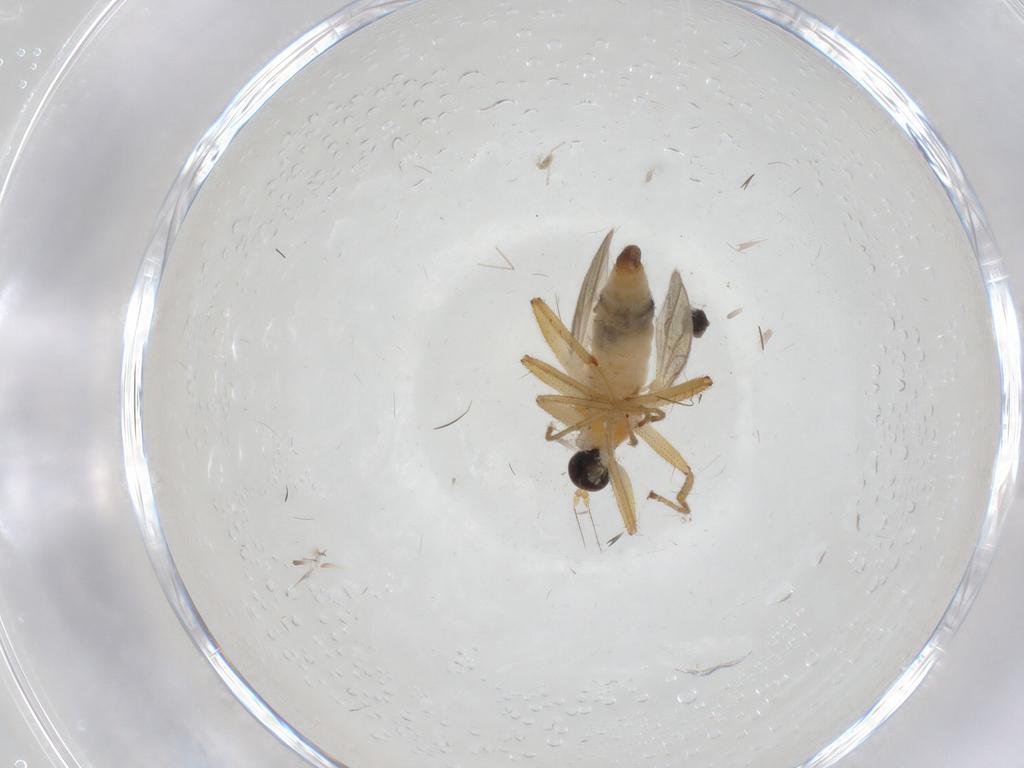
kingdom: Animalia
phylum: Arthropoda
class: Insecta
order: Diptera
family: Hybotidae
